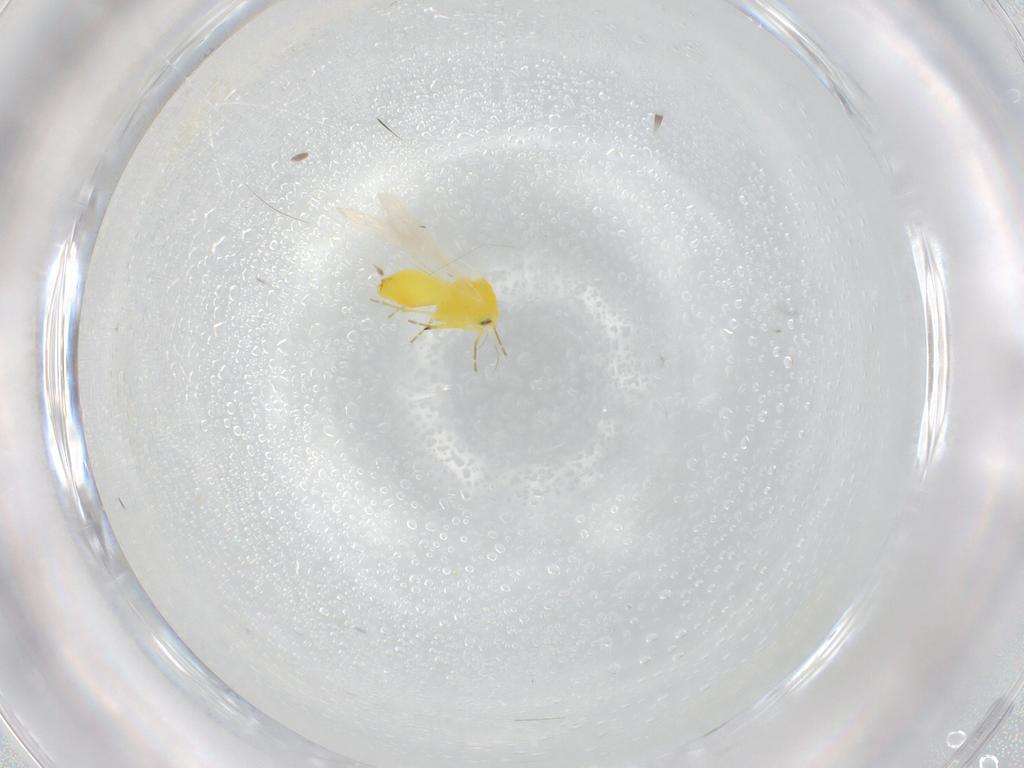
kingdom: Animalia
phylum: Arthropoda
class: Insecta
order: Hemiptera
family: Aleyrodidae
